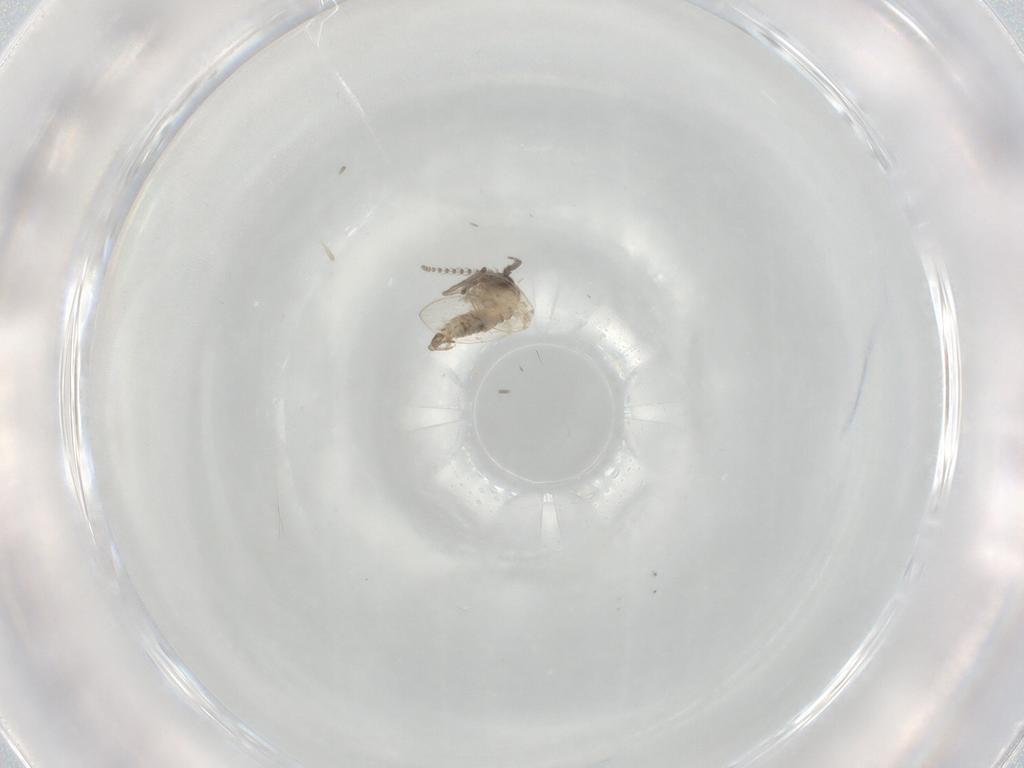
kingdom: Animalia
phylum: Arthropoda
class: Insecta
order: Diptera
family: Psychodidae
